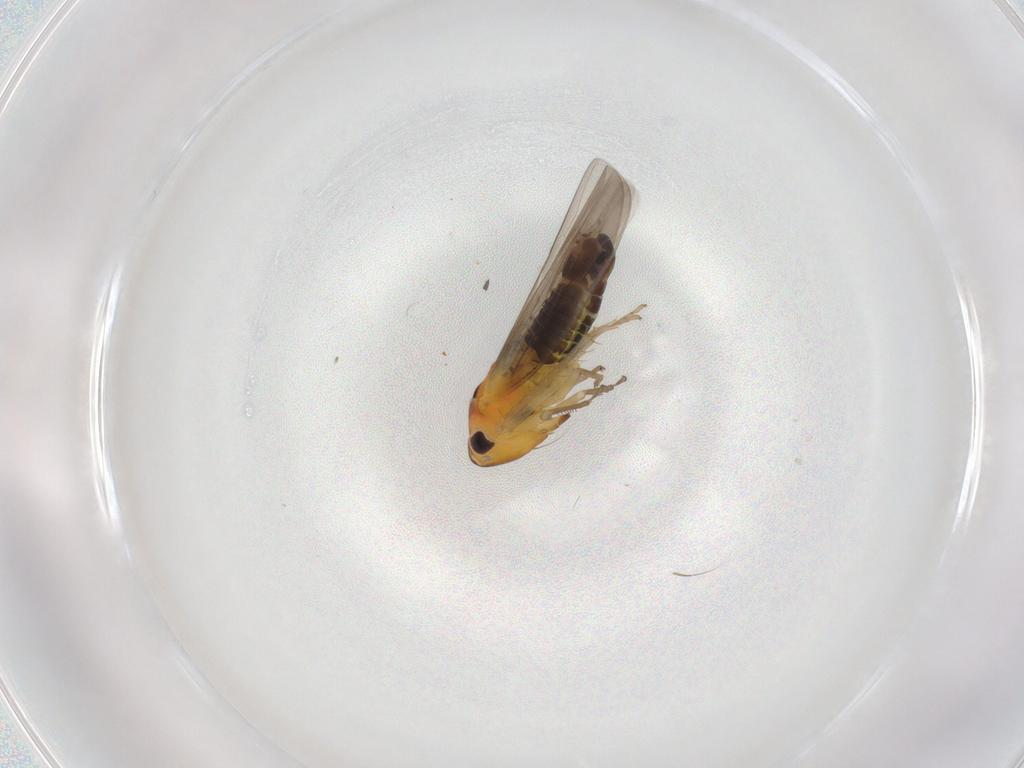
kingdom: Animalia
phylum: Arthropoda
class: Insecta
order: Hemiptera
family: Cicadellidae
